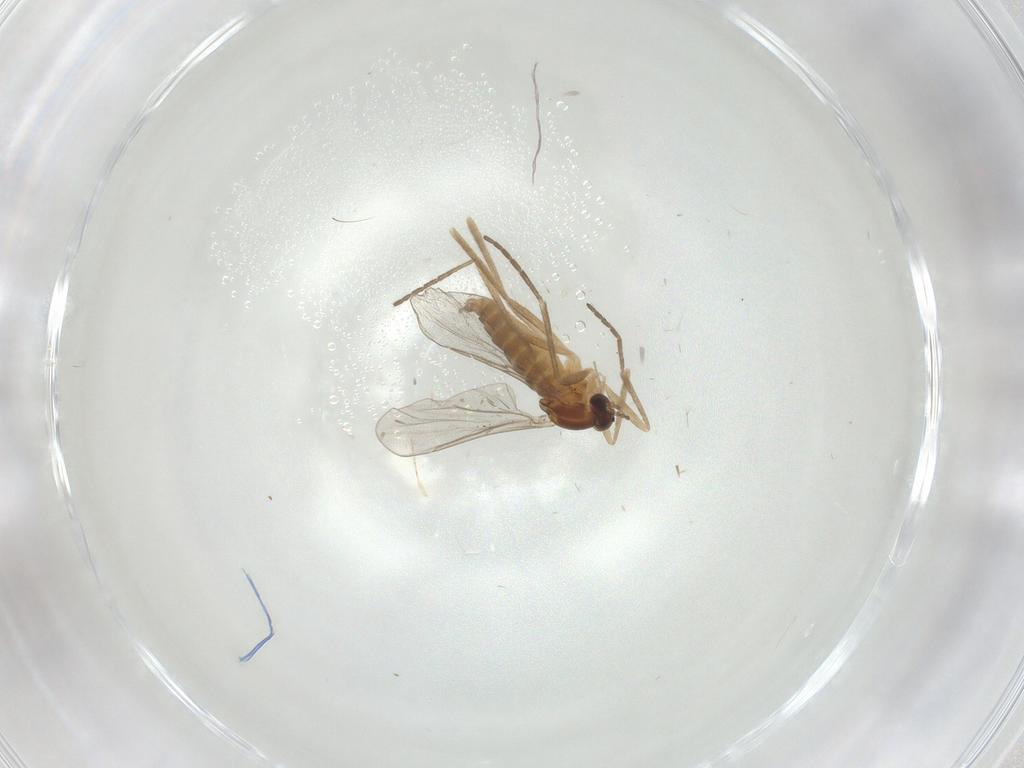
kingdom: Animalia
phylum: Arthropoda
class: Insecta
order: Diptera
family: Cecidomyiidae
